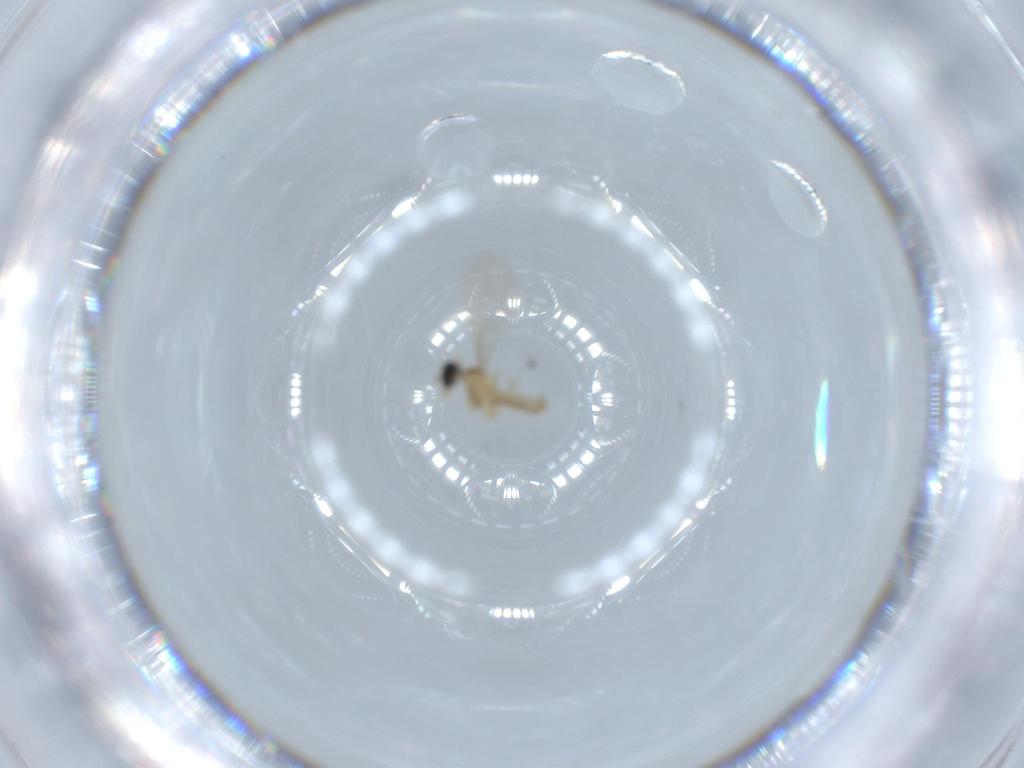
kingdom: Animalia
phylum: Arthropoda
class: Insecta
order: Diptera
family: Cecidomyiidae
